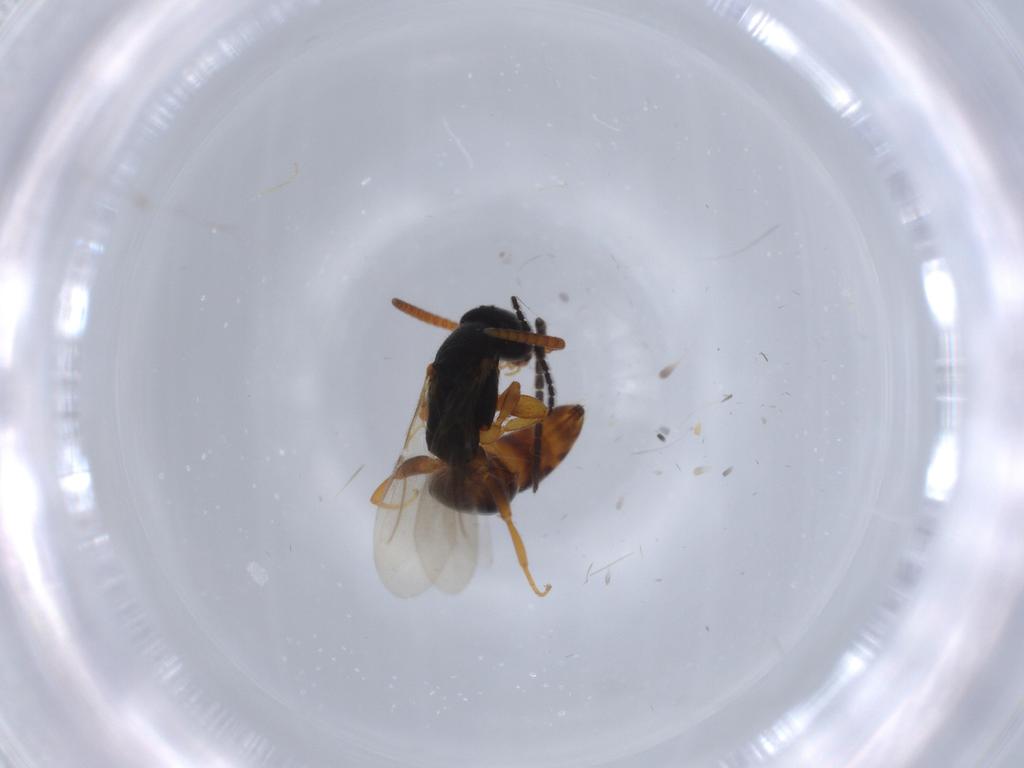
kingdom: Animalia
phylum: Arthropoda
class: Insecta
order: Hymenoptera
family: Bethylidae
